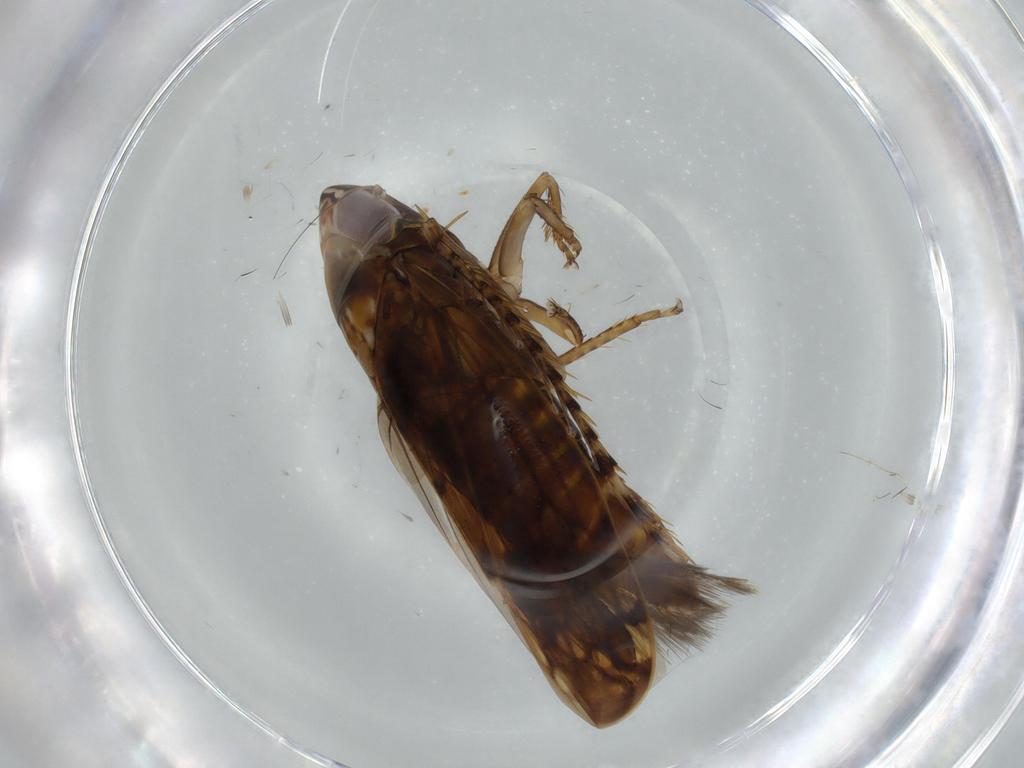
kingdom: Animalia
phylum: Arthropoda
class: Insecta
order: Hemiptera
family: Cicadellidae
